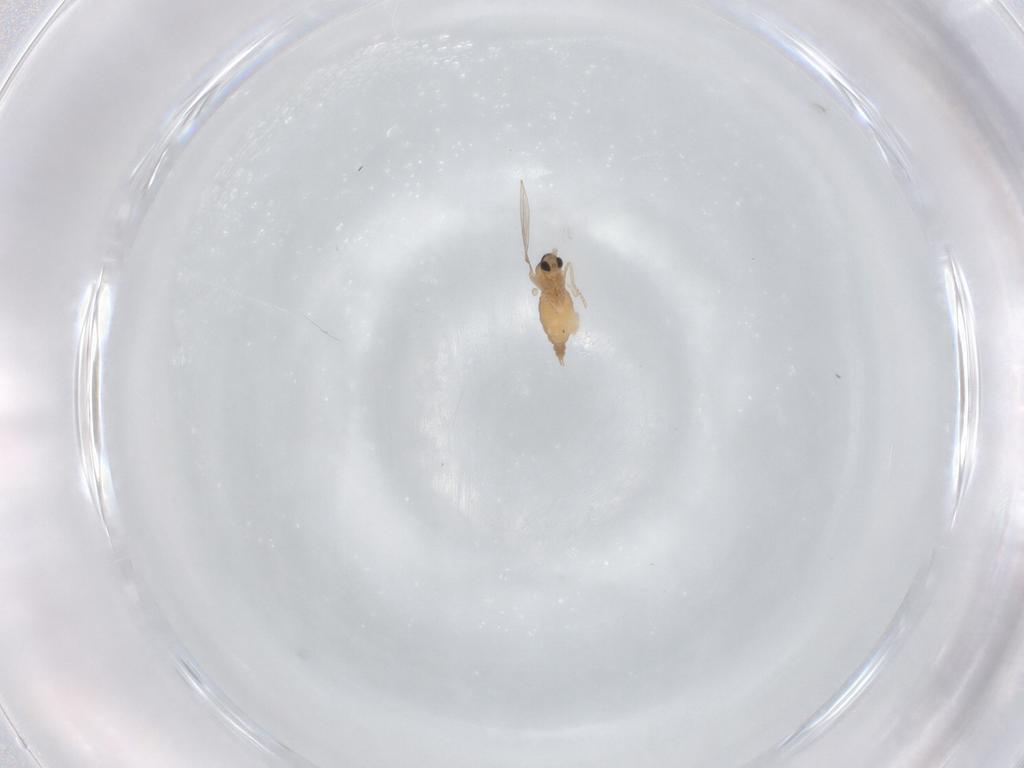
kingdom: Animalia
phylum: Arthropoda
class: Insecta
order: Diptera
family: Cecidomyiidae
